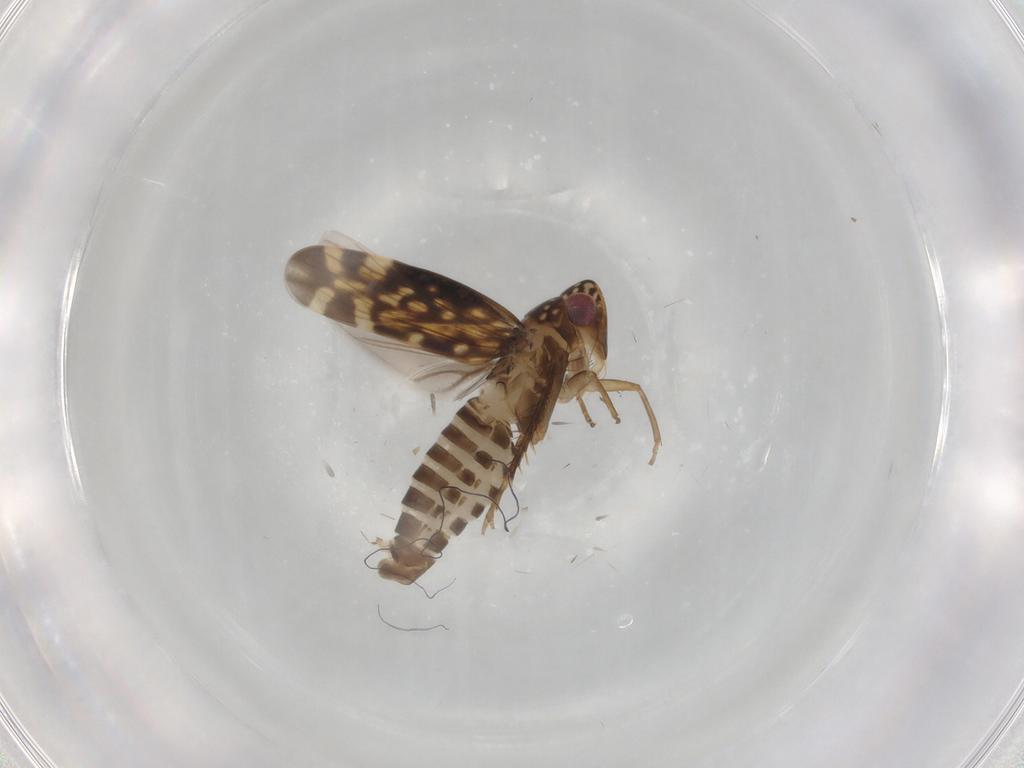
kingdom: Animalia
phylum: Arthropoda
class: Insecta
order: Hemiptera
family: Cicadellidae
